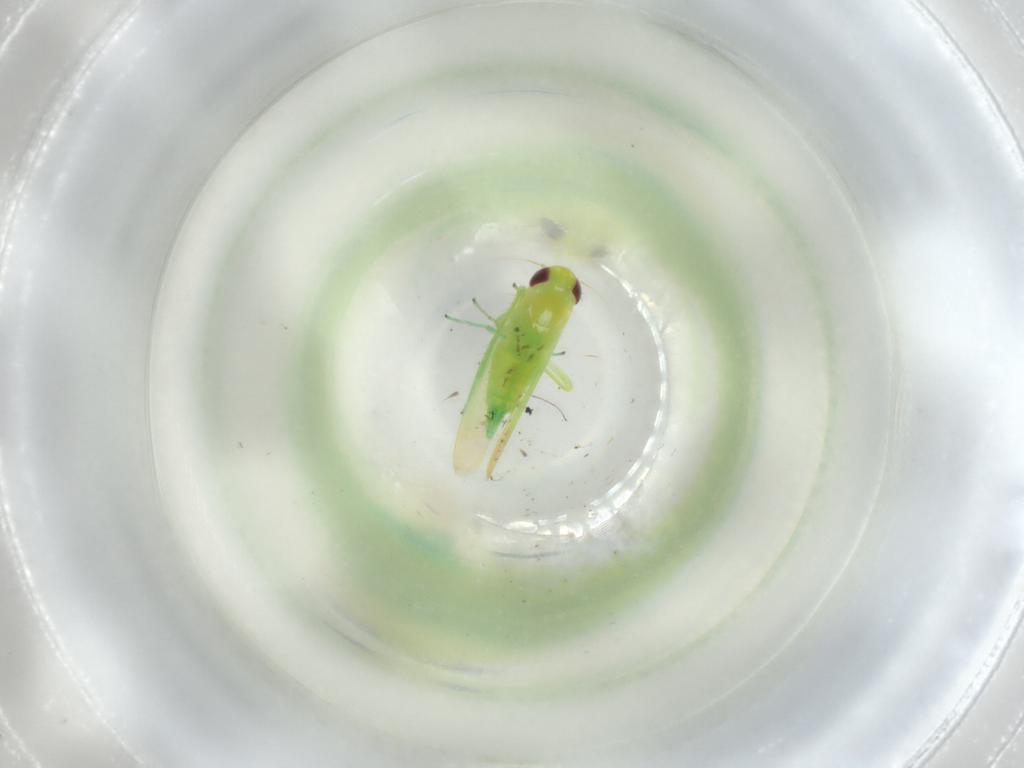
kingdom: Animalia
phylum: Arthropoda
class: Insecta
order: Hemiptera
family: Cicadellidae
